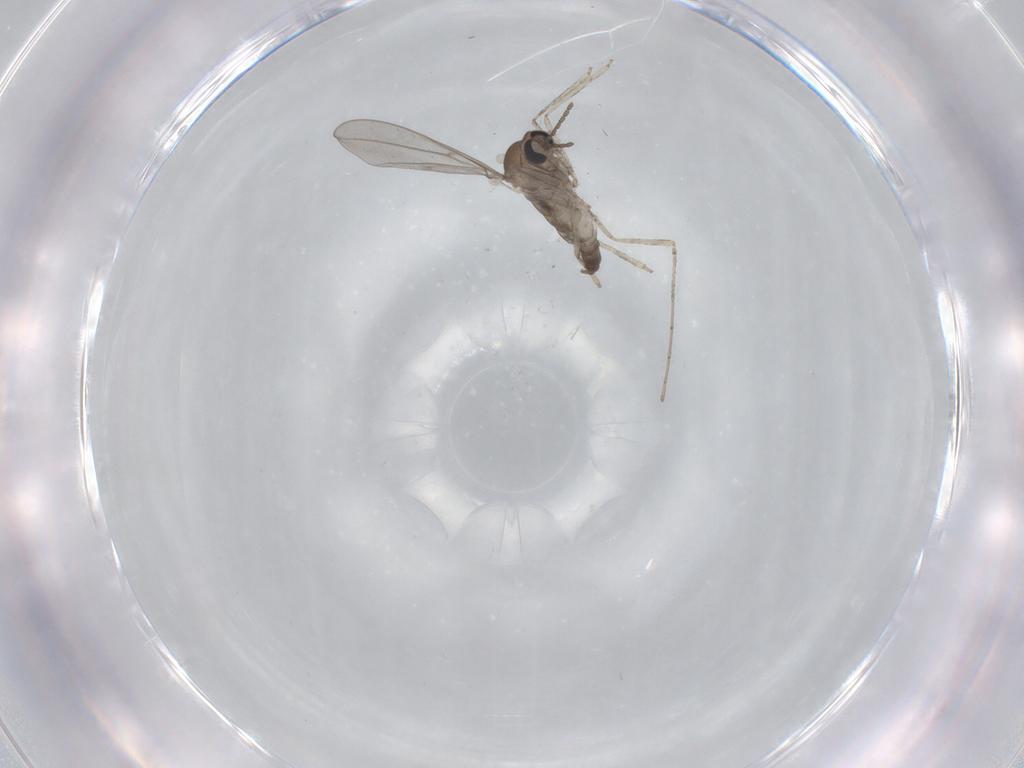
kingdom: Animalia
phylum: Arthropoda
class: Insecta
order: Diptera
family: Cecidomyiidae
